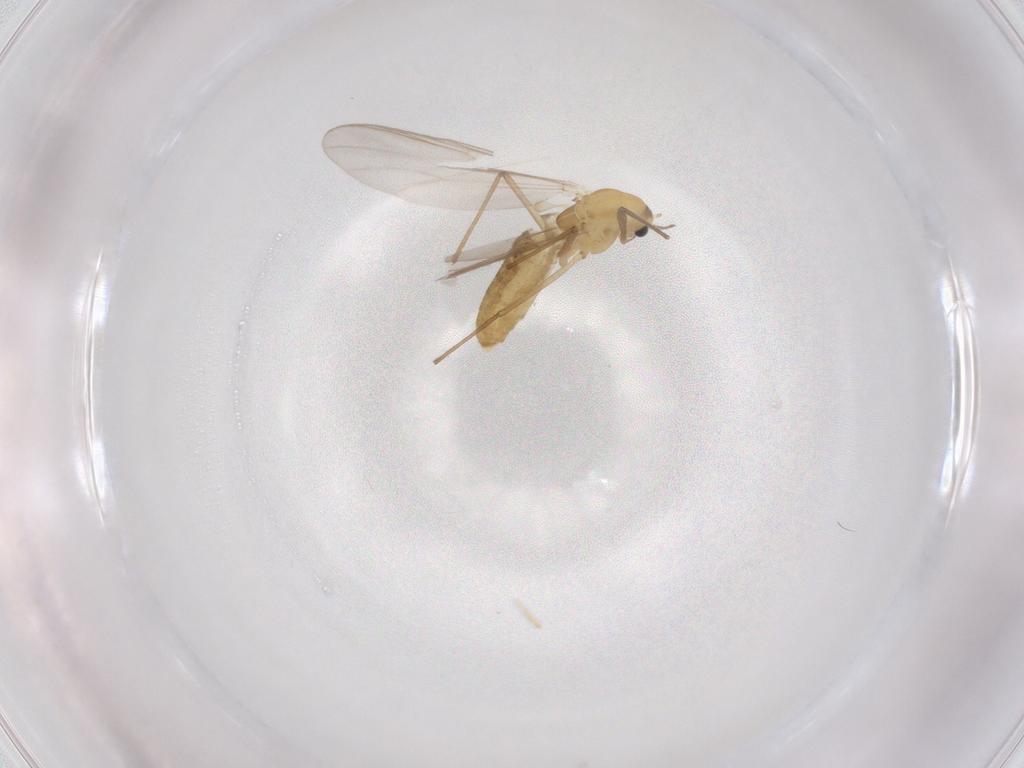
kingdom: Animalia
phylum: Arthropoda
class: Insecta
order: Diptera
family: Chironomidae
